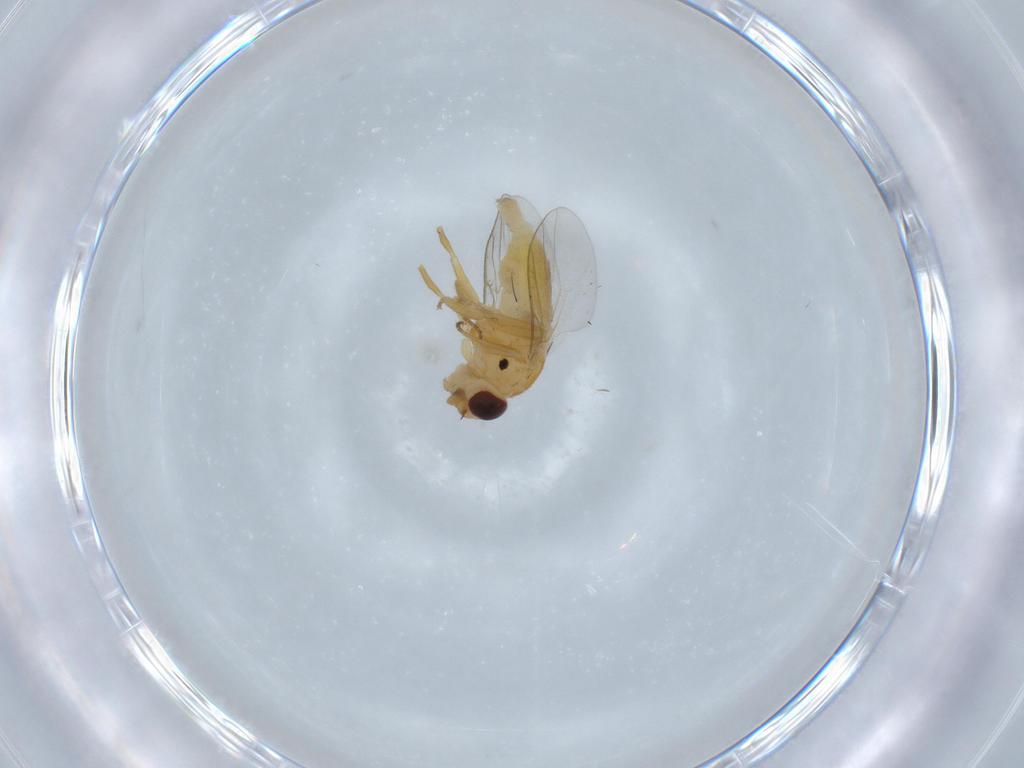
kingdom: Animalia
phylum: Arthropoda
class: Insecta
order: Diptera
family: Chloropidae
